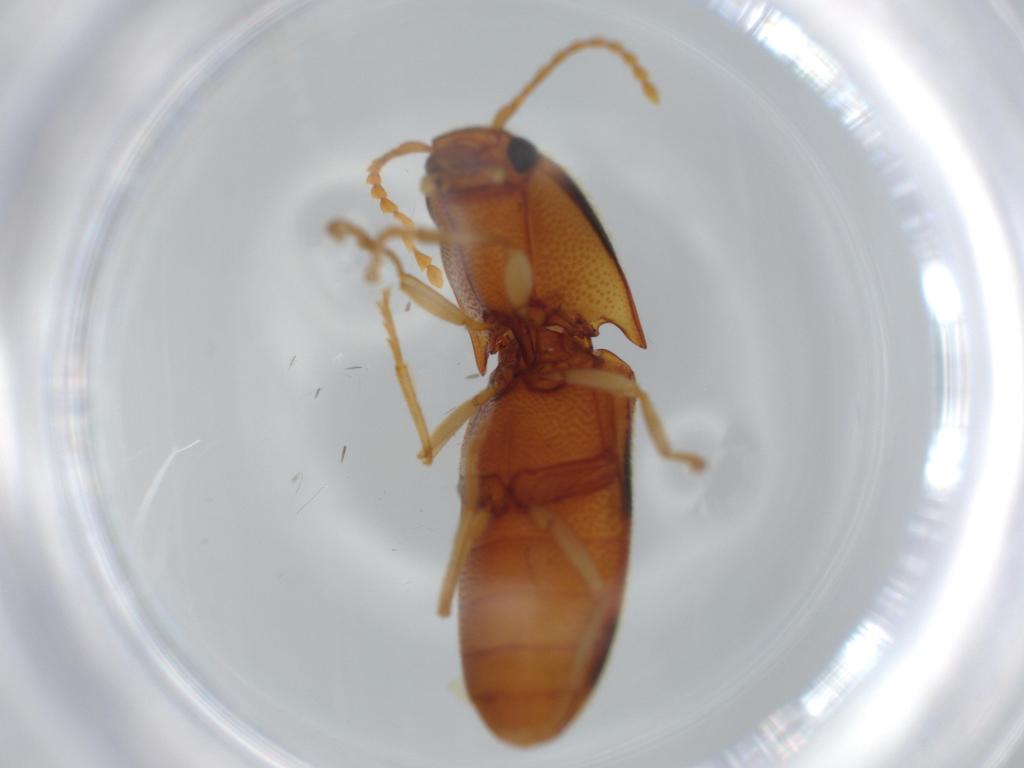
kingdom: Animalia
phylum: Arthropoda
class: Insecta
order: Coleoptera
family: Elateridae
